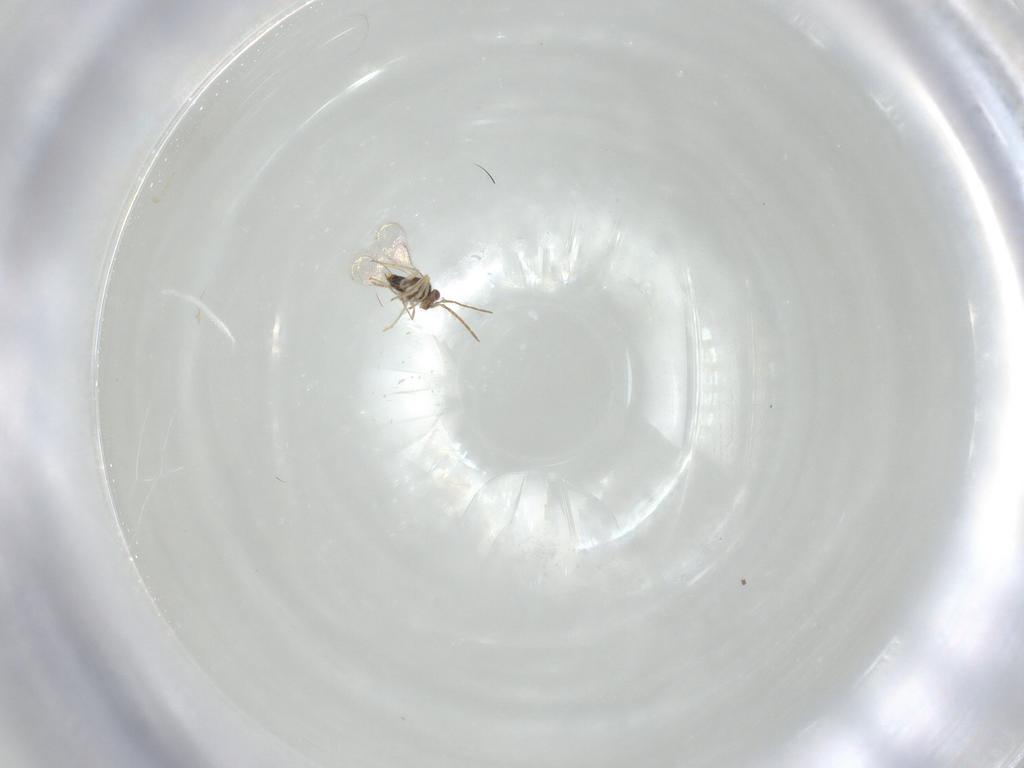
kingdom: Animalia
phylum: Arthropoda
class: Insecta
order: Hymenoptera
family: Aphelinidae
